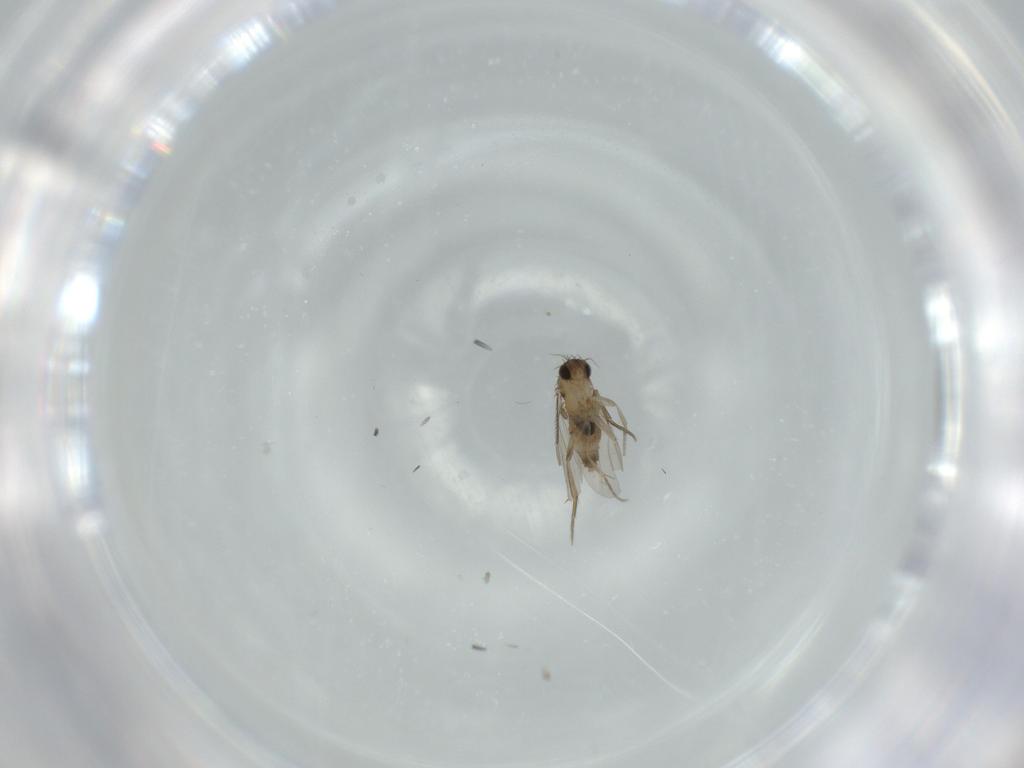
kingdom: Animalia
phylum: Arthropoda
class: Insecta
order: Diptera
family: Phoridae
